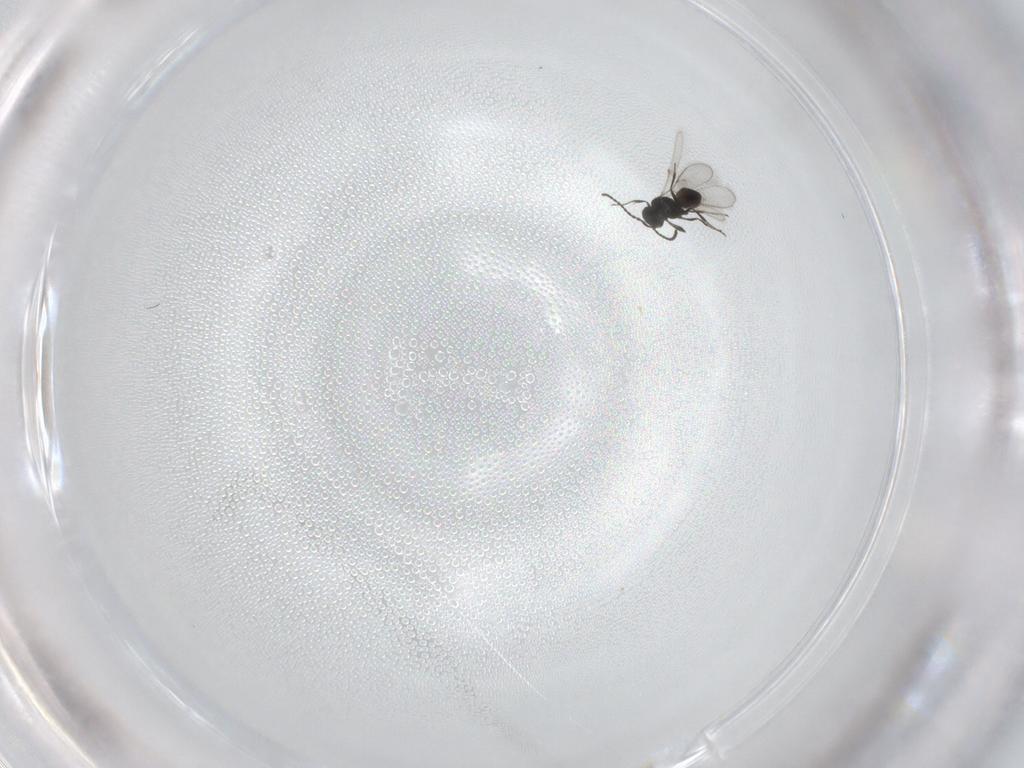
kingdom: Animalia
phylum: Arthropoda
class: Insecta
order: Hymenoptera
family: Scelionidae
